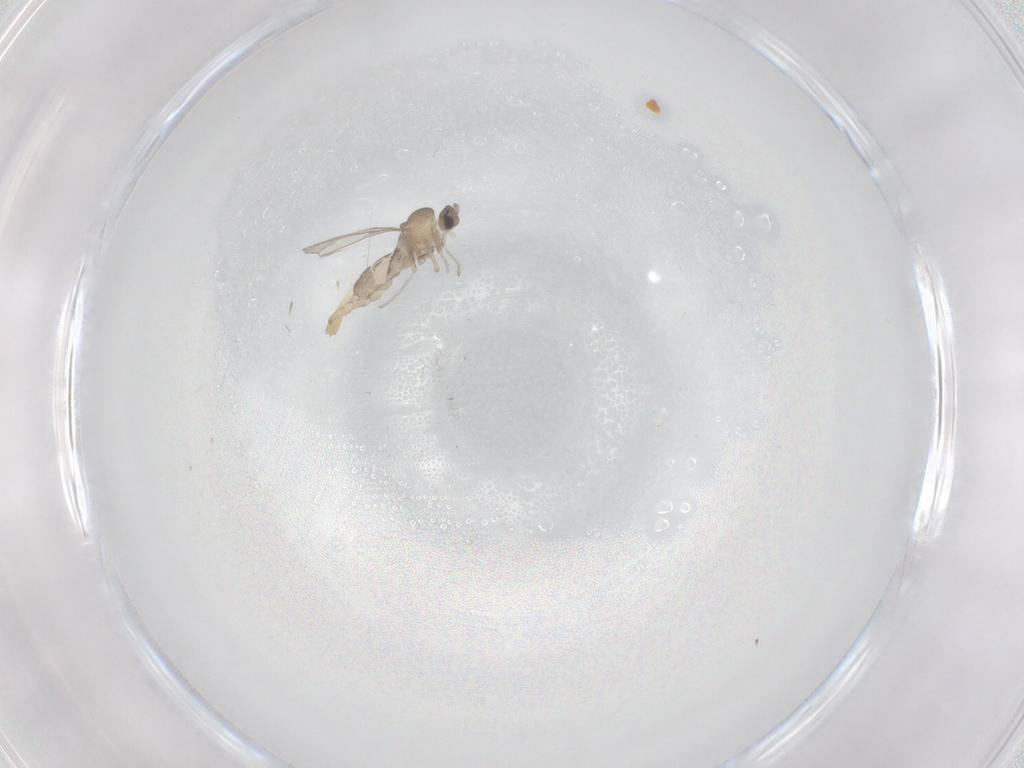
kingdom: Animalia
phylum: Arthropoda
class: Insecta
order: Diptera
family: Cecidomyiidae
